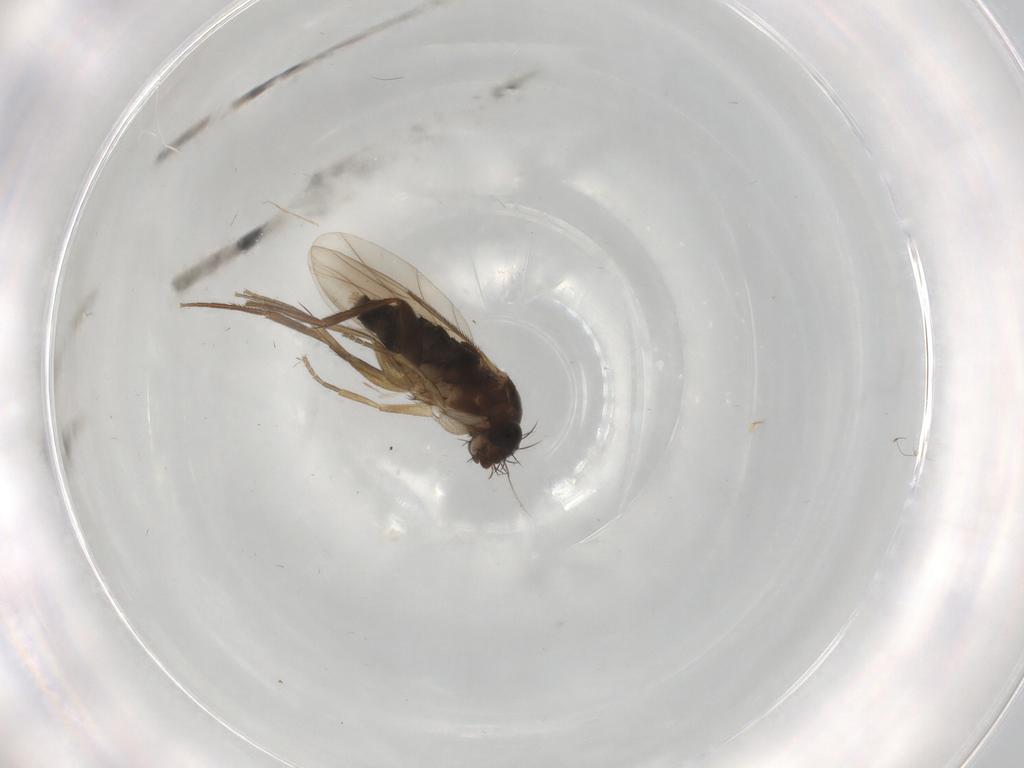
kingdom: Animalia
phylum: Arthropoda
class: Insecta
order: Diptera
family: Phoridae
